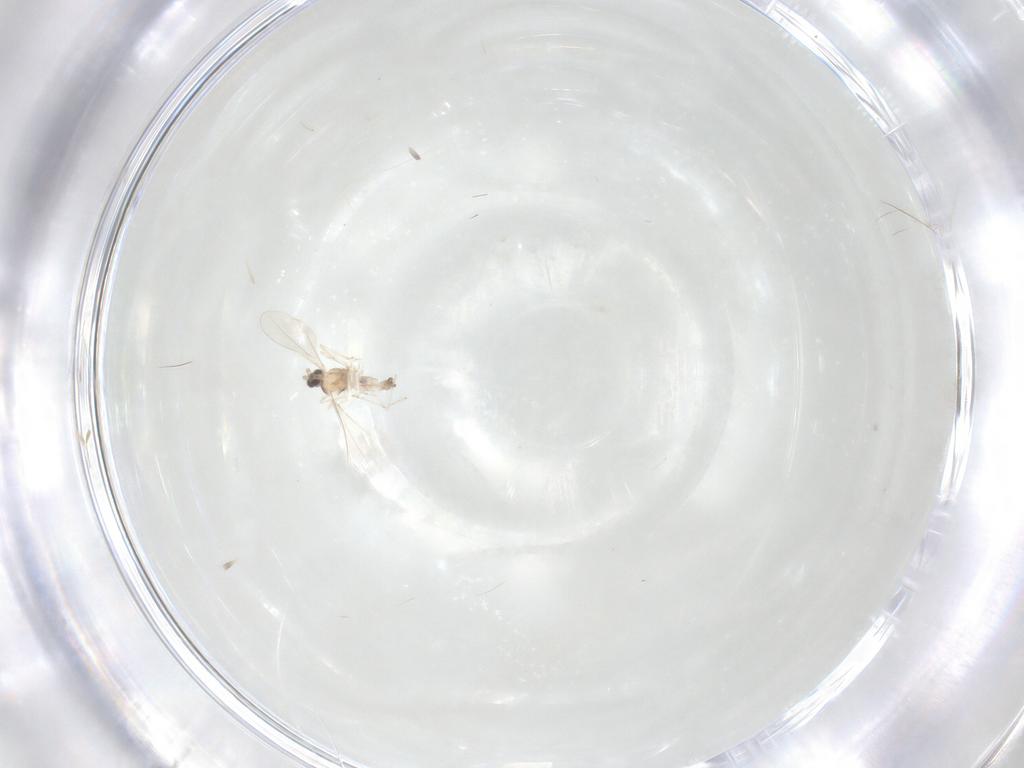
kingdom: Animalia
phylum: Arthropoda
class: Insecta
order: Diptera
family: Cecidomyiidae
